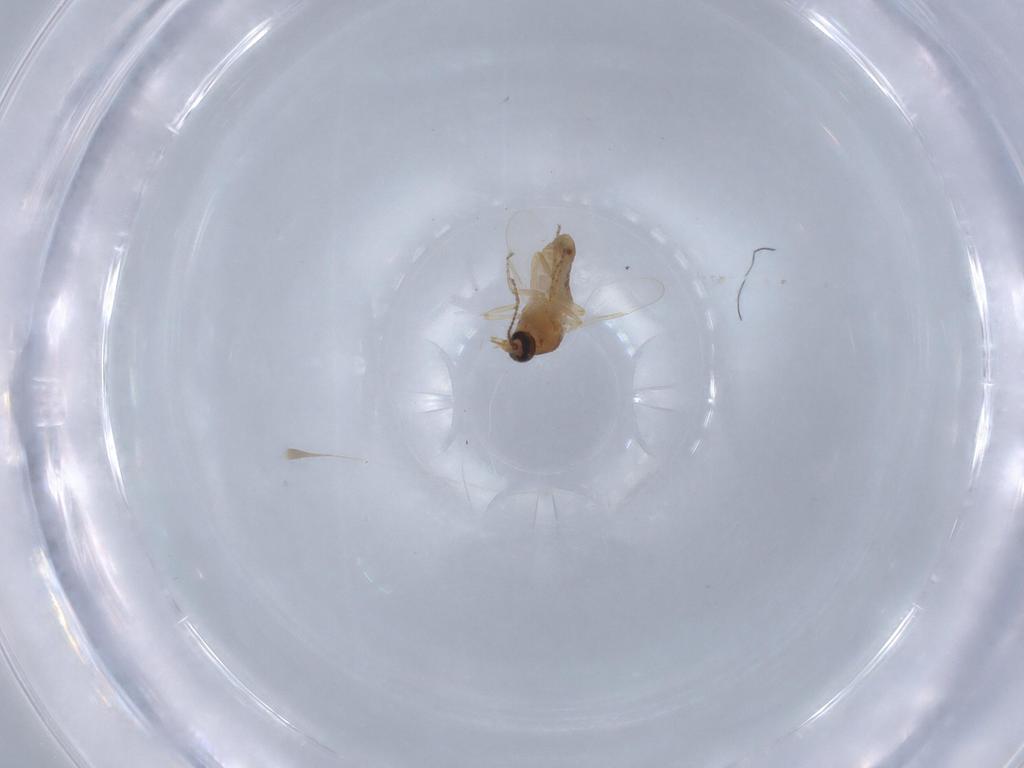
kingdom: Animalia
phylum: Arthropoda
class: Insecta
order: Diptera
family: Ceratopogonidae
